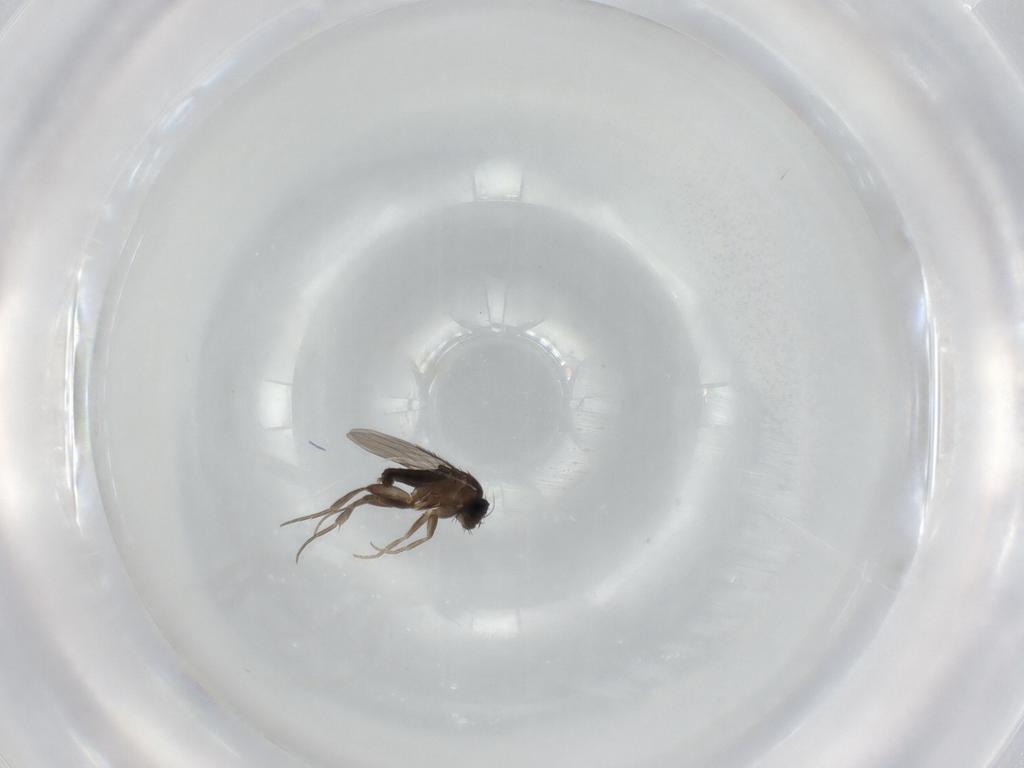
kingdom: Animalia
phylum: Arthropoda
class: Insecta
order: Diptera
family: Phoridae
